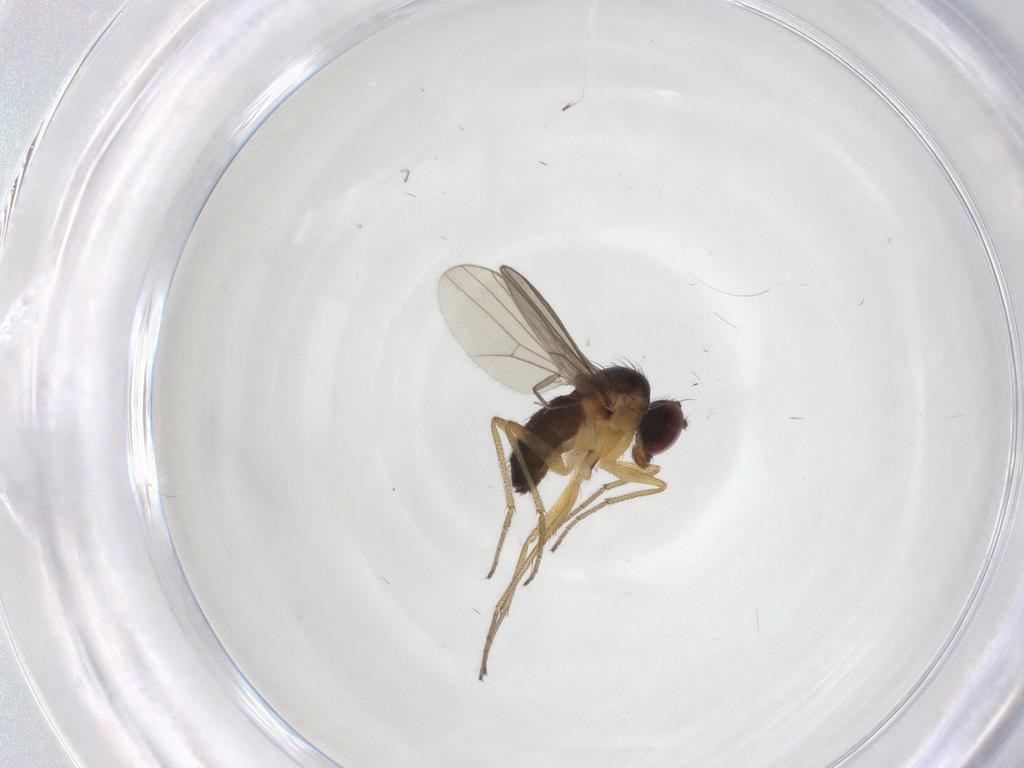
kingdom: Animalia
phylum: Arthropoda
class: Insecta
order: Diptera
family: Dolichopodidae
